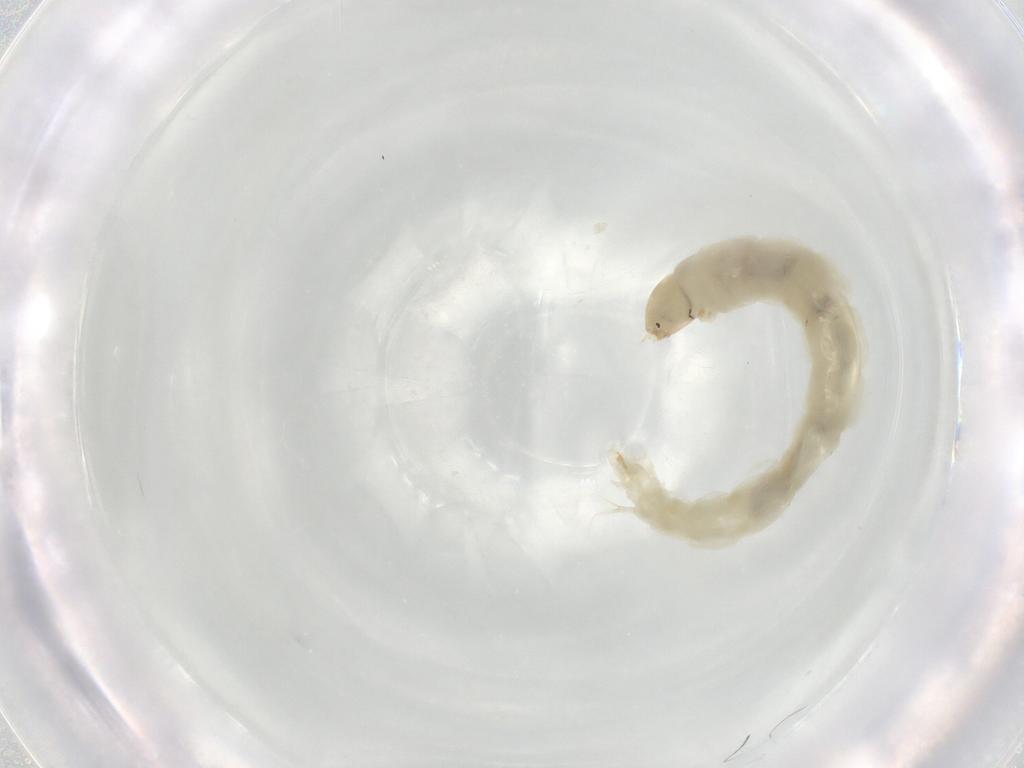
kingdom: Animalia
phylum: Arthropoda
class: Insecta
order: Diptera
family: Chironomidae
